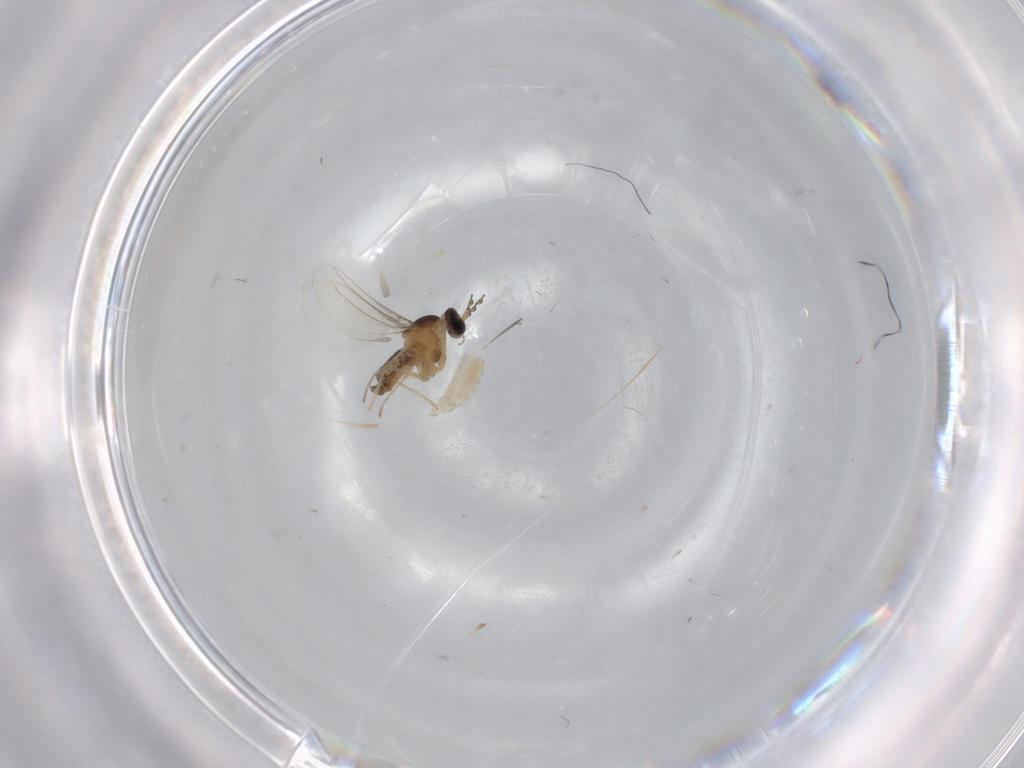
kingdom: Animalia
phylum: Arthropoda
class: Insecta
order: Diptera
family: Cecidomyiidae
